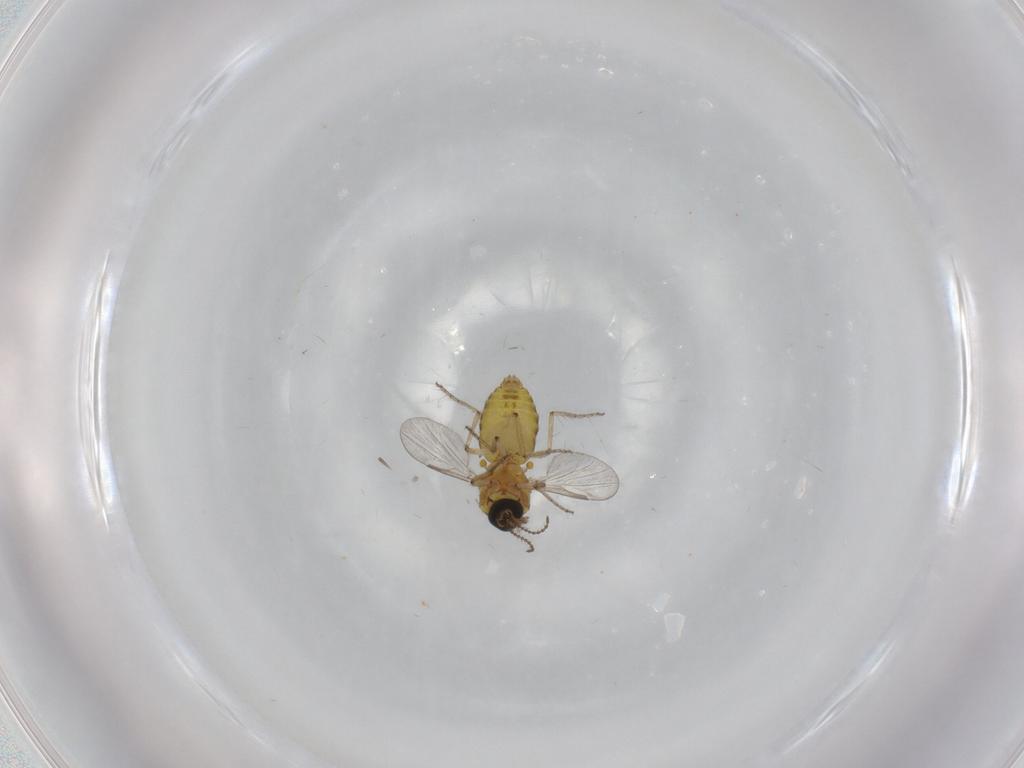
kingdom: Animalia
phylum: Arthropoda
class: Insecta
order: Diptera
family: Ceratopogonidae
